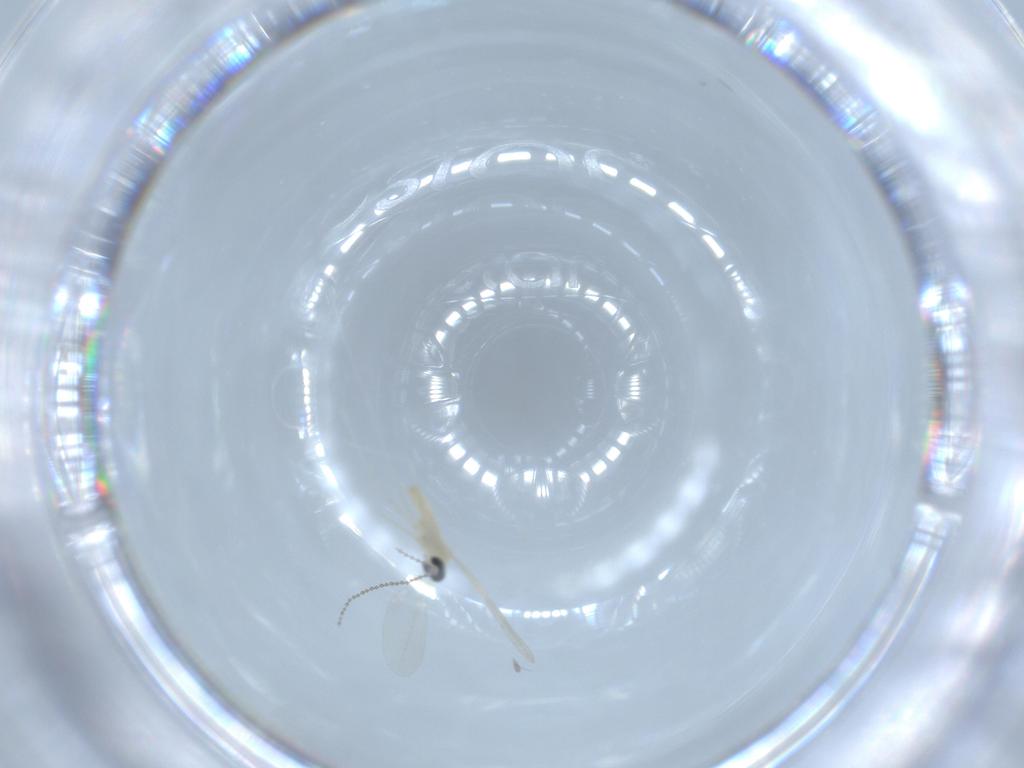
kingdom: Animalia
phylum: Arthropoda
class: Insecta
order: Diptera
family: Cecidomyiidae
